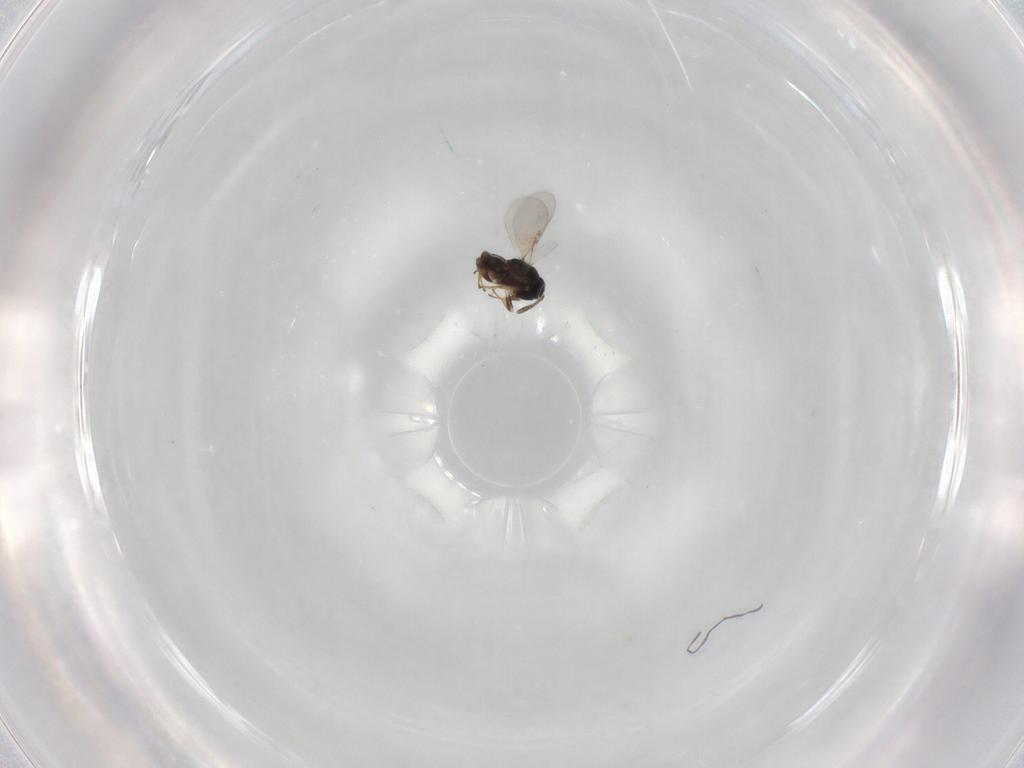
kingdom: Animalia
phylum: Arthropoda
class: Insecta
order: Hymenoptera
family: Encyrtidae
